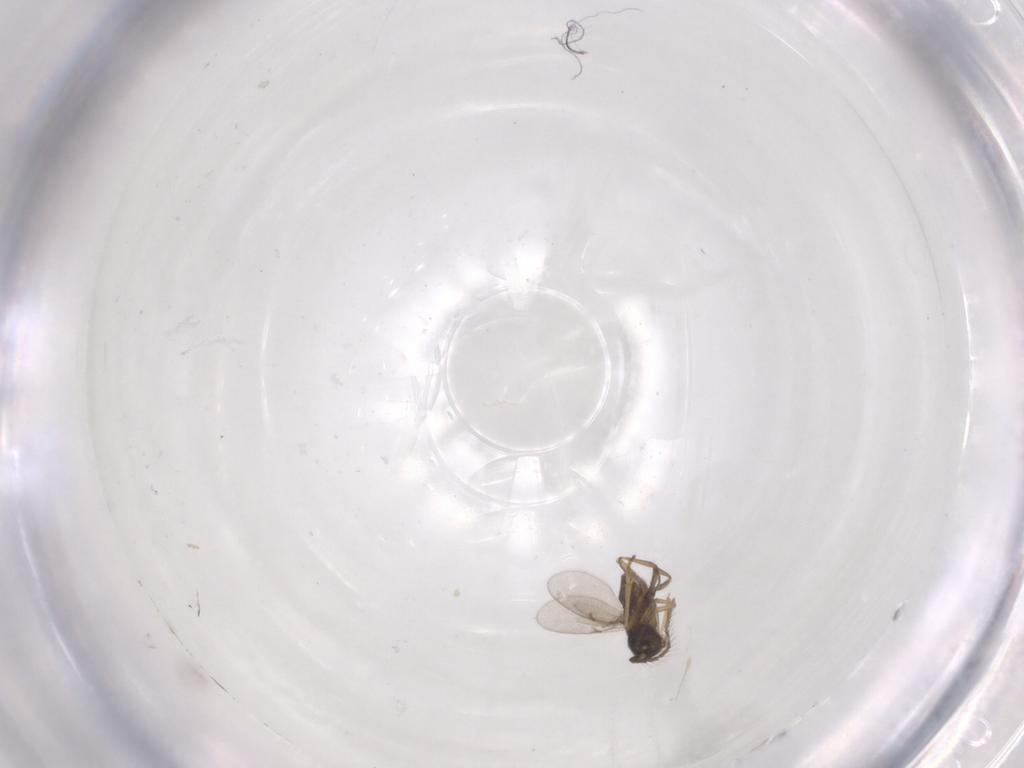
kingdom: Animalia
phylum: Arthropoda
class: Insecta
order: Hymenoptera
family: Encyrtidae
